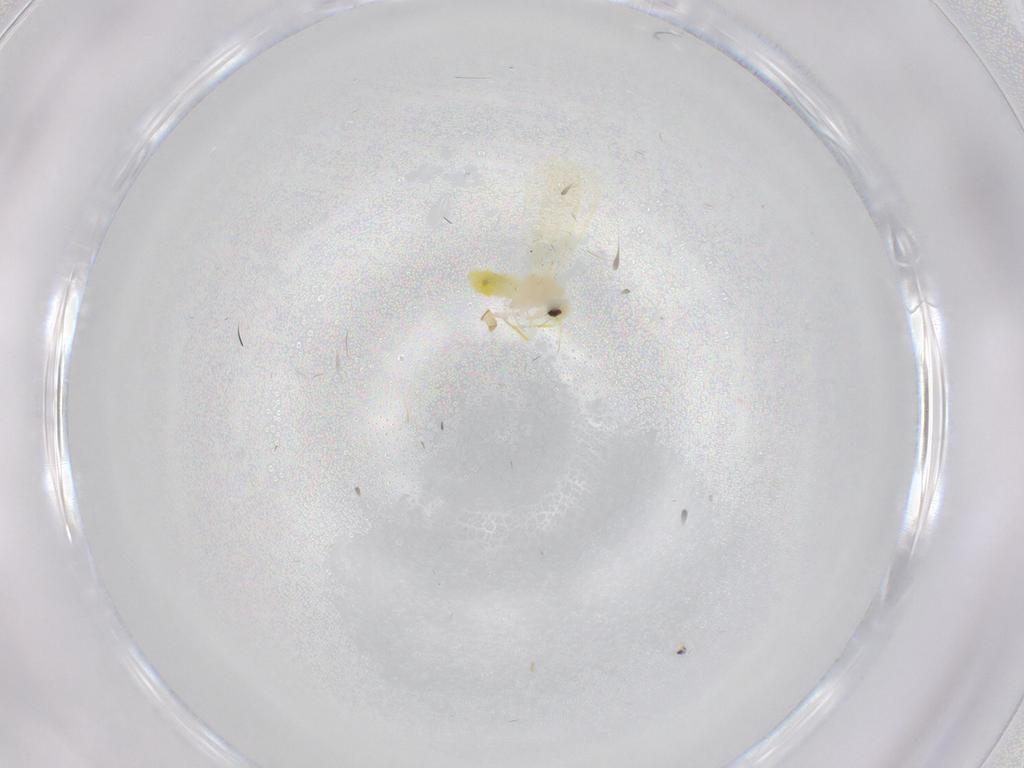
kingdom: Animalia
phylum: Arthropoda
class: Insecta
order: Hemiptera
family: Aleyrodidae
